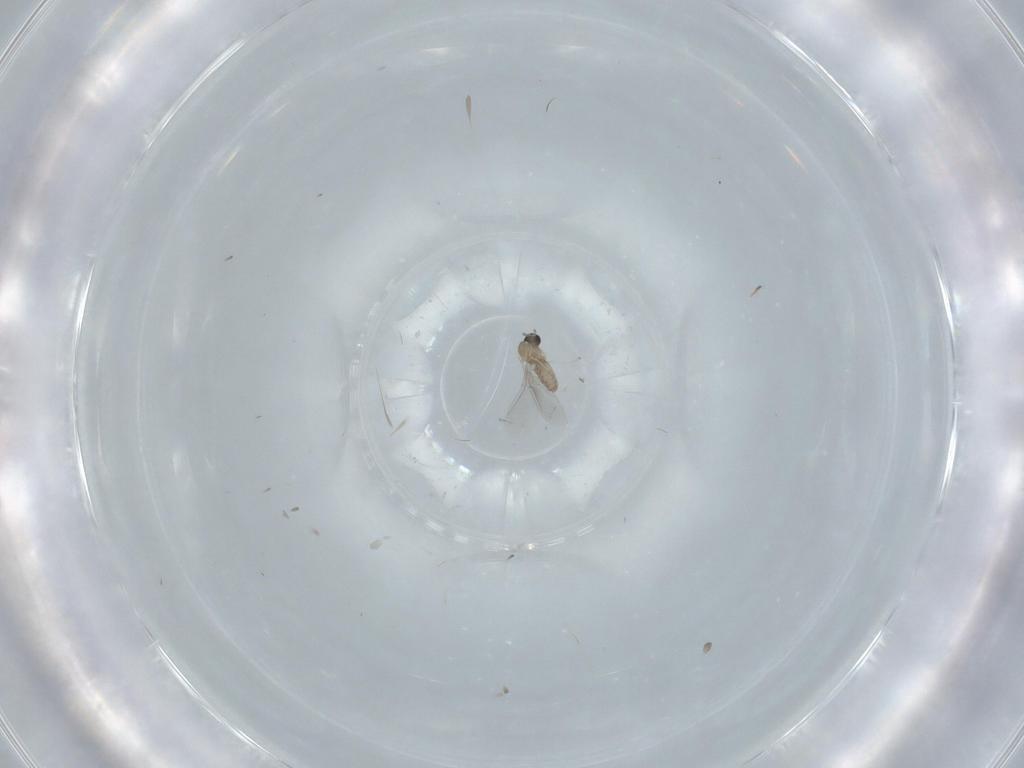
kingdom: Animalia
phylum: Arthropoda
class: Insecta
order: Diptera
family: Cecidomyiidae
